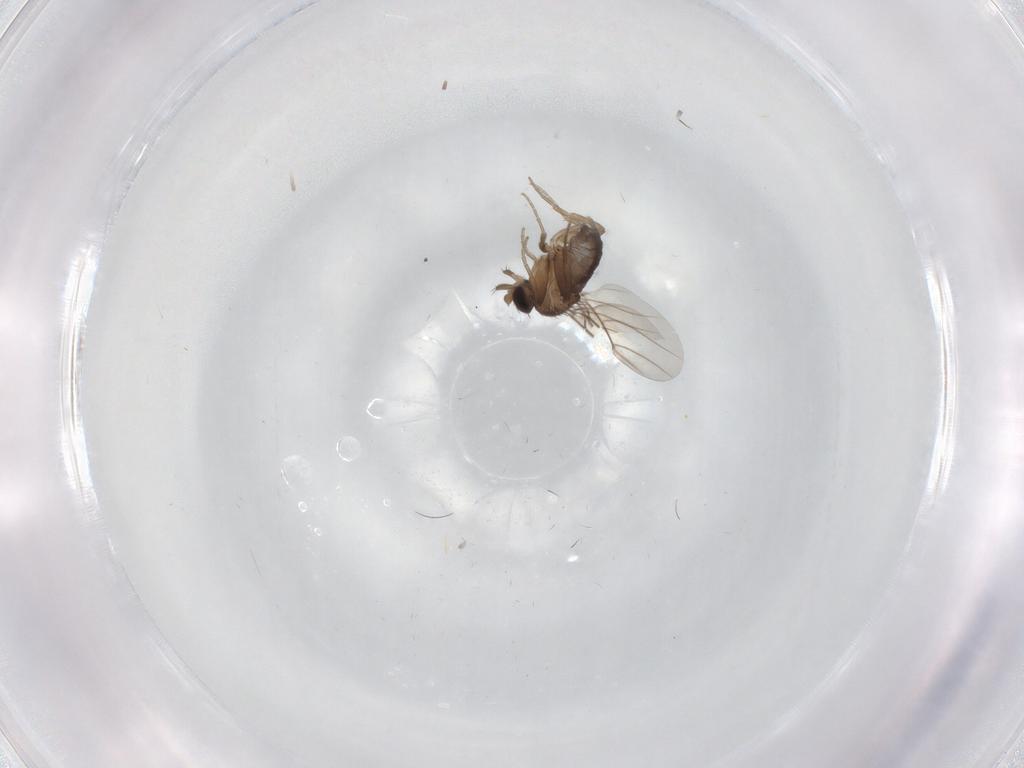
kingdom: Animalia
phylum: Arthropoda
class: Insecta
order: Diptera
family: Phoridae
